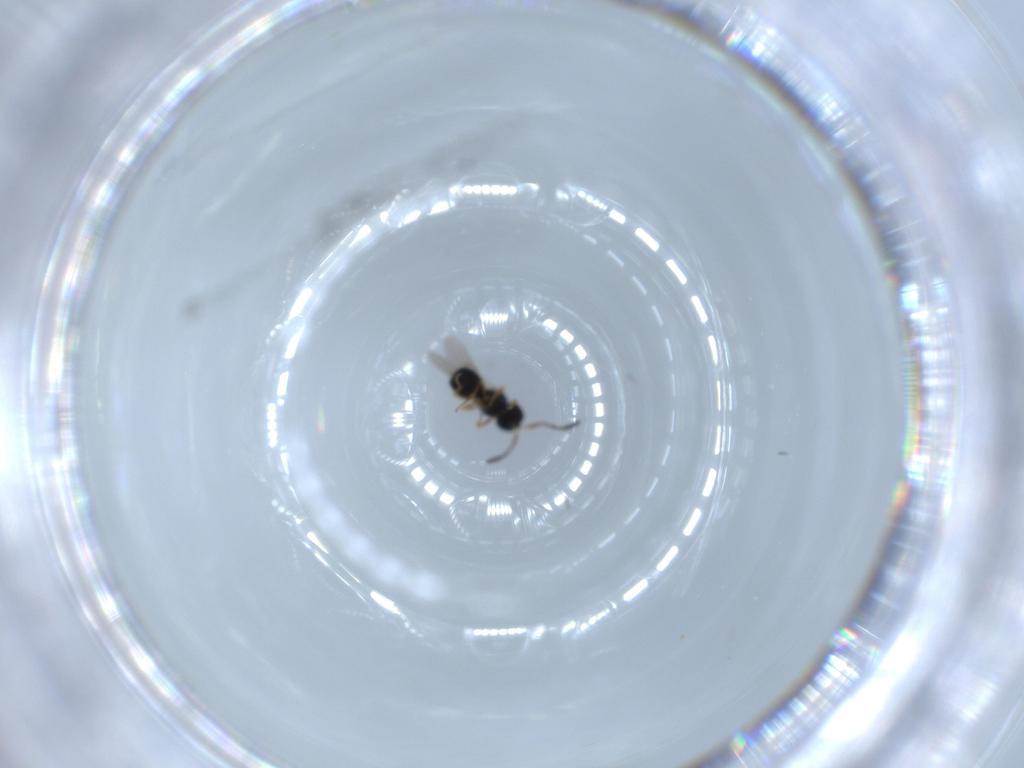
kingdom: Animalia
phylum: Arthropoda
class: Insecta
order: Hymenoptera
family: Scelionidae
